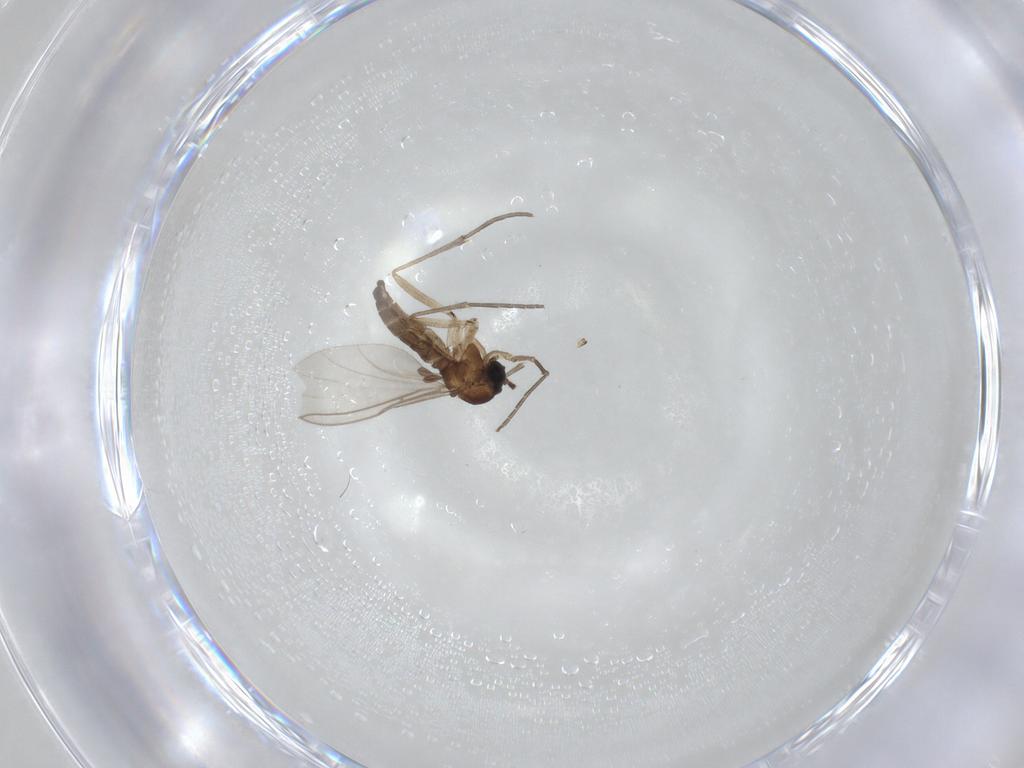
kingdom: Animalia
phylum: Arthropoda
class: Insecta
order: Diptera
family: Sciaridae
